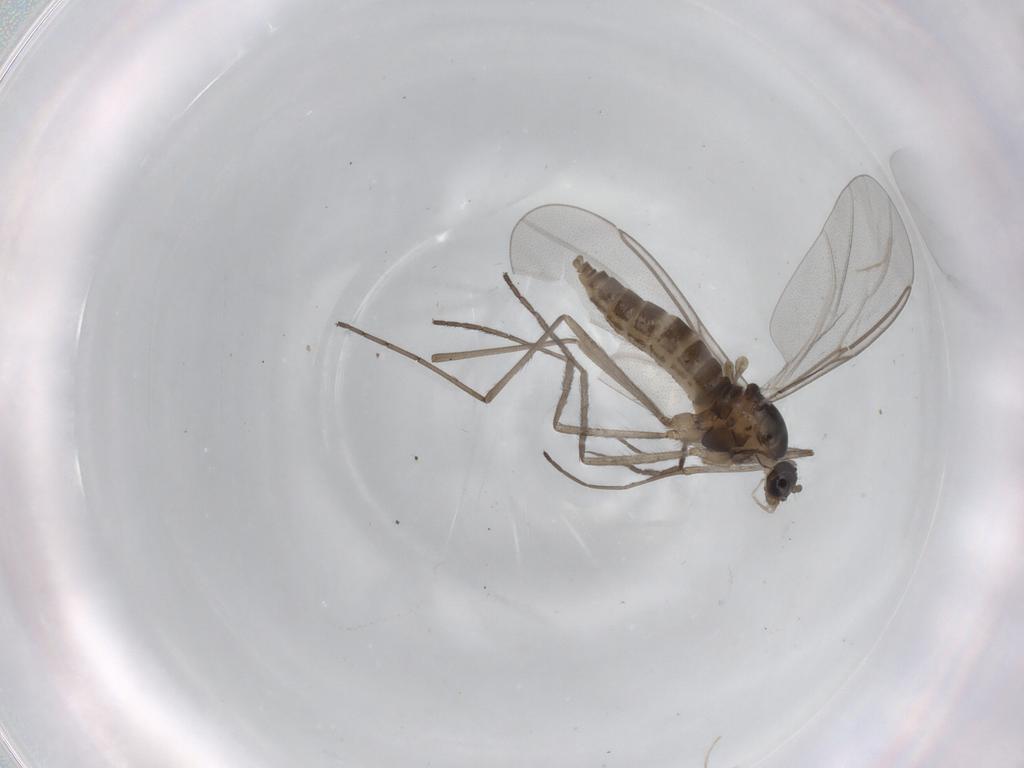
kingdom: Animalia
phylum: Arthropoda
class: Insecta
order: Diptera
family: Cecidomyiidae
